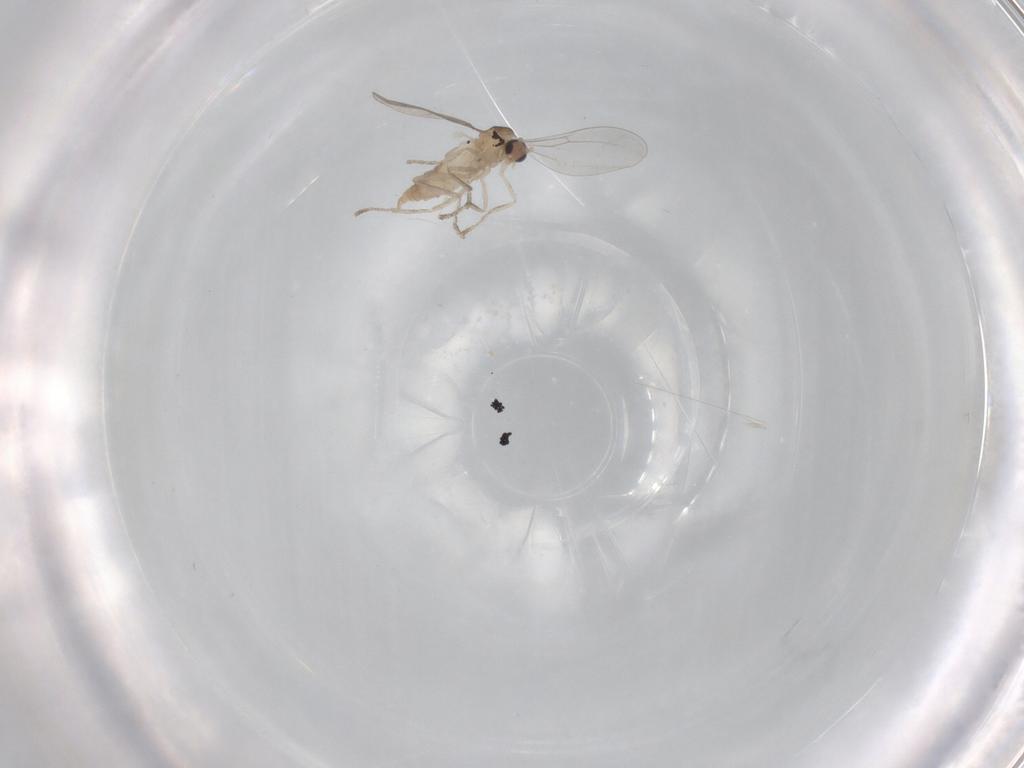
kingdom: Animalia
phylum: Arthropoda
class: Insecta
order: Diptera
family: Cecidomyiidae
